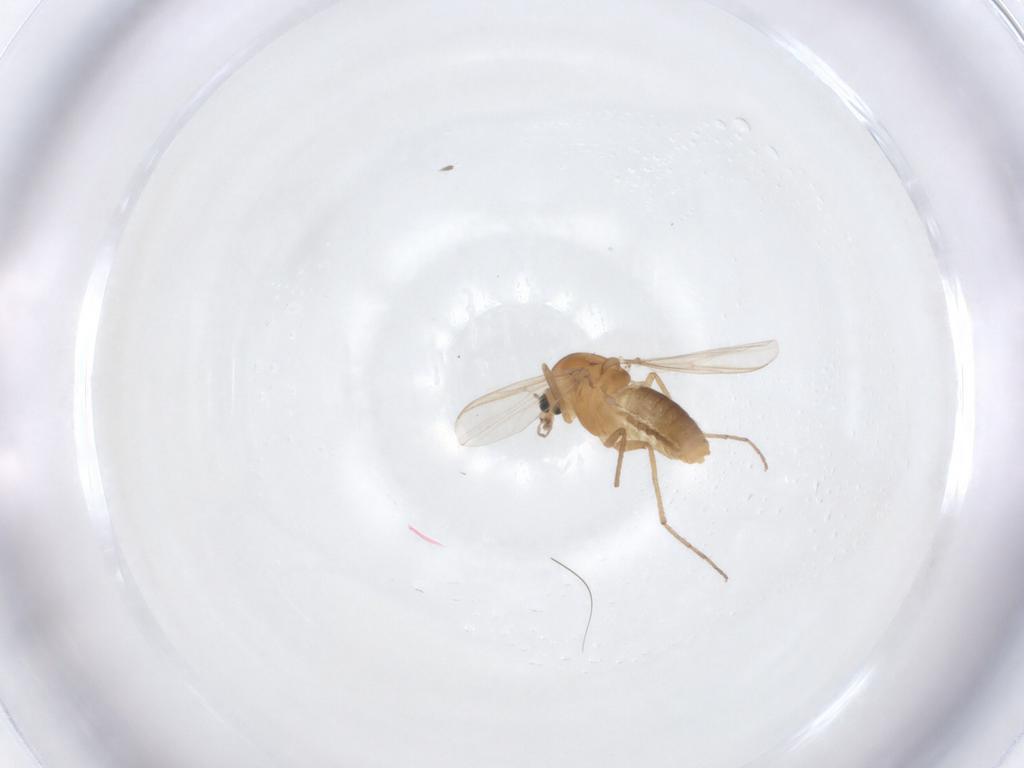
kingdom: Animalia
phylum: Arthropoda
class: Insecta
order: Diptera
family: Chironomidae
